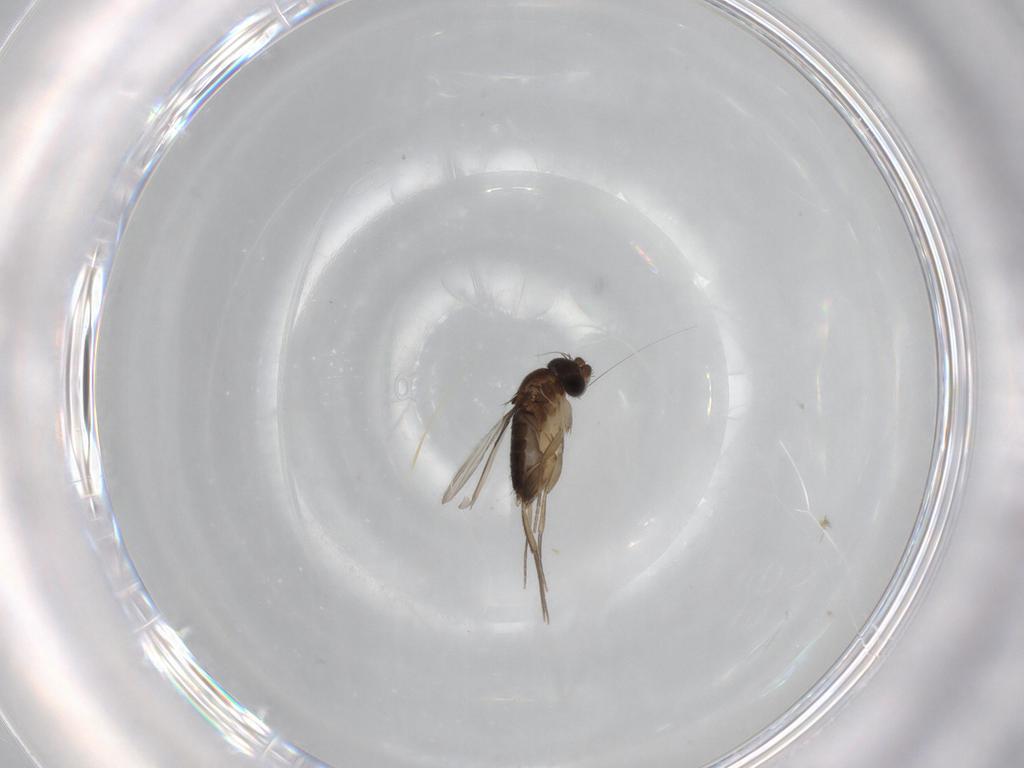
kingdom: Animalia
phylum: Arthropoda
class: Insecta
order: Diptera
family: Phoridae
